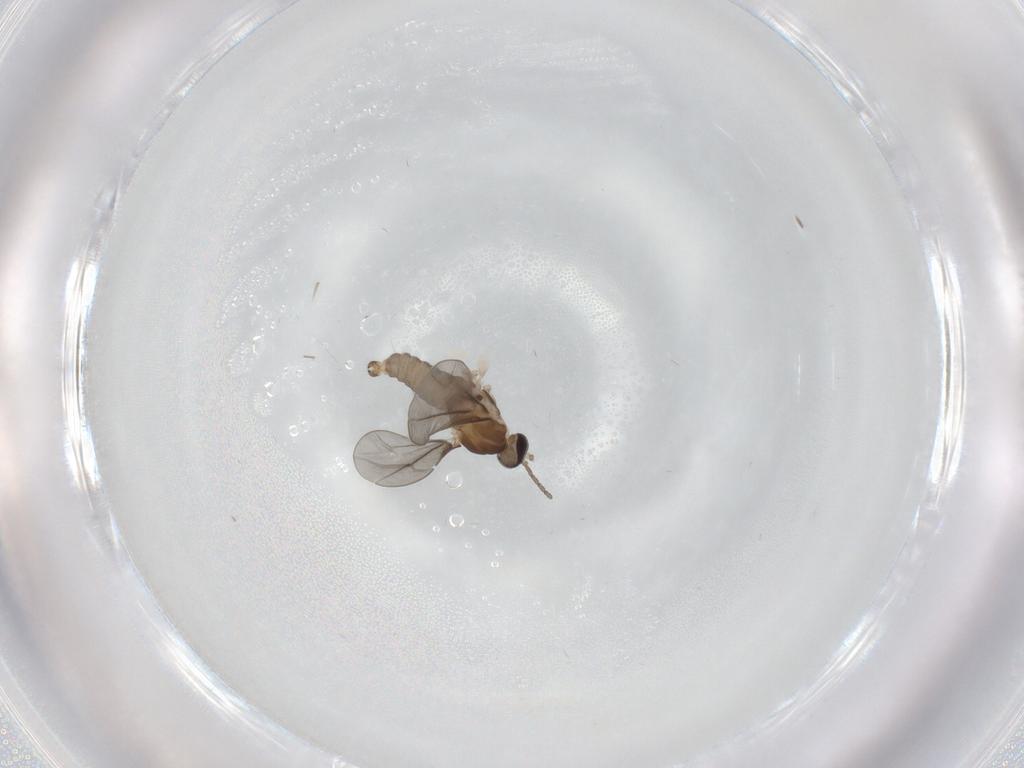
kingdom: Animalia
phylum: Arthropoda
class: Insecta
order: Diptera
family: Cecidomyiidae
